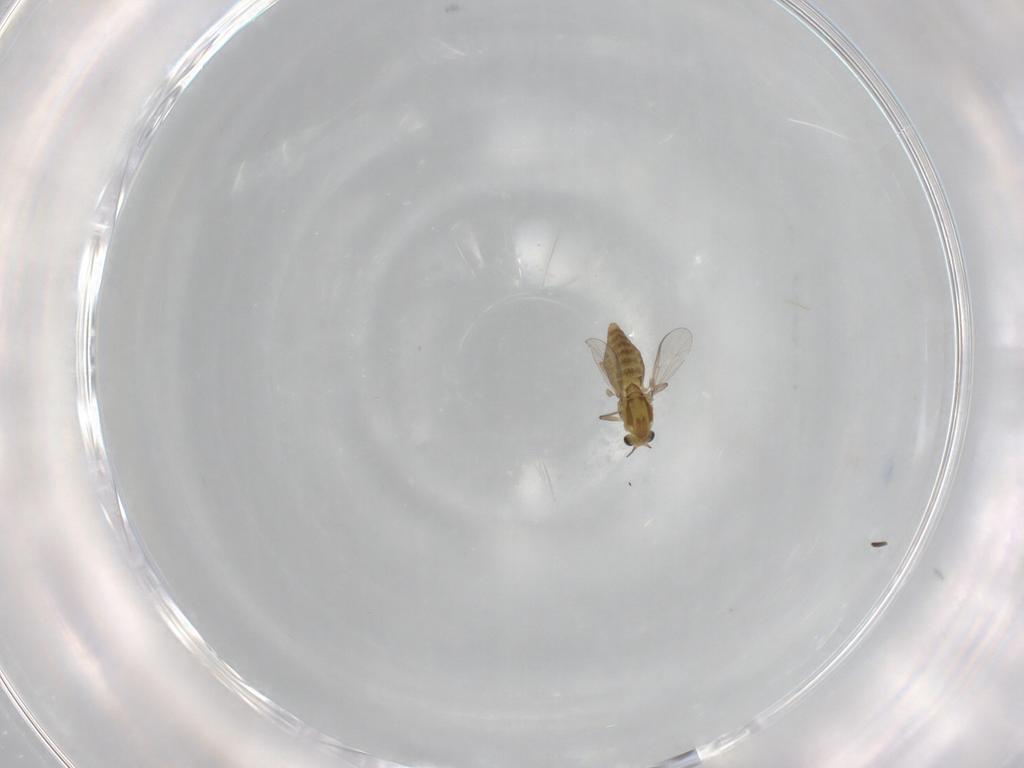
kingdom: Animalia
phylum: Arthropoda
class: Insecta
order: Diptera
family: Chironomidae
